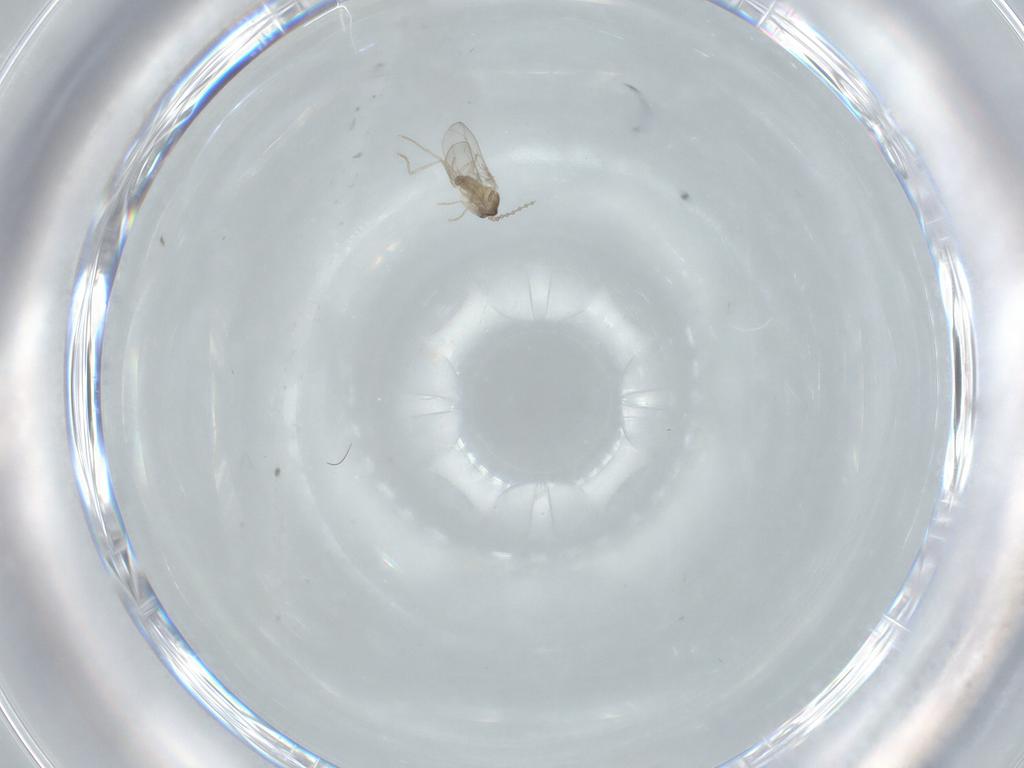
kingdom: Animalia
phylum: Arthropoda
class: Insecta
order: Diptera
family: Cecidomyiidae
